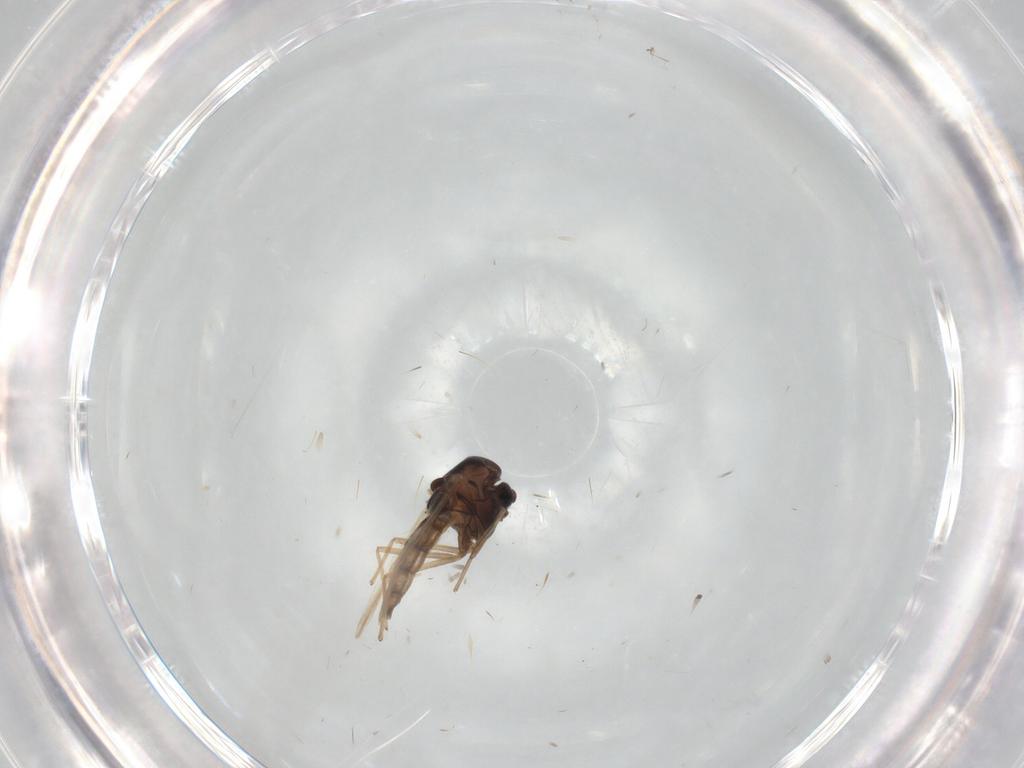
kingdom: Animalia
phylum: Arthropoda
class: Insecta
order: Diptera
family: Chironomidae
